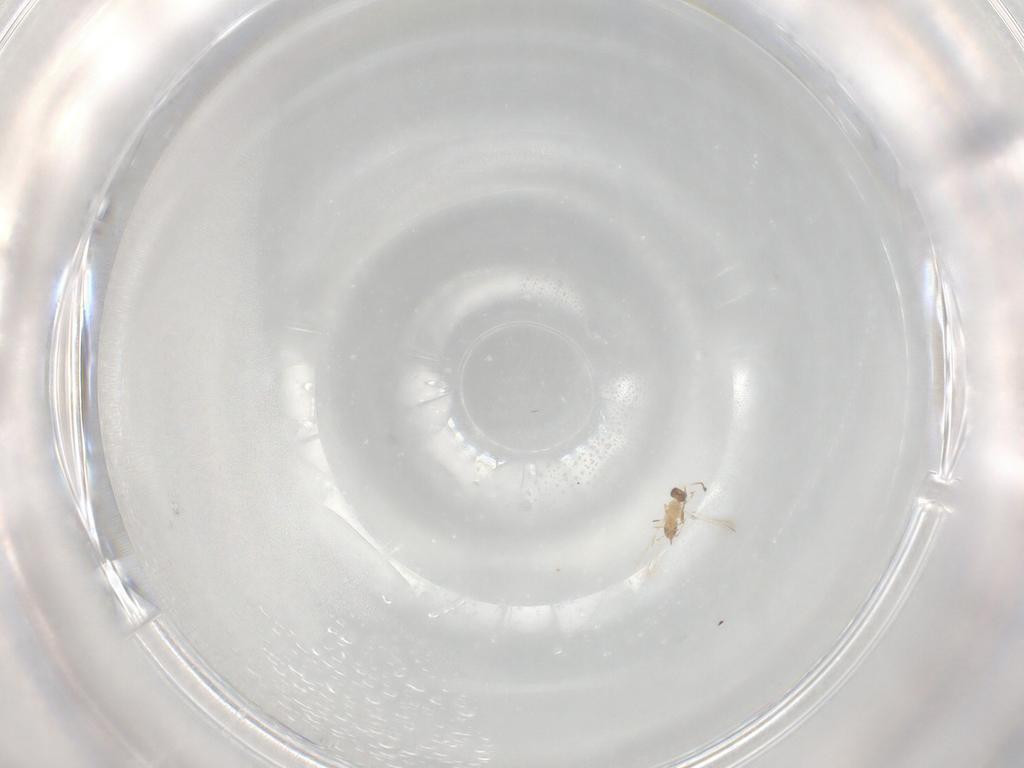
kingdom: Animalia
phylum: Arthropoda
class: Insecta
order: Hymenoptera
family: Mymaridae
